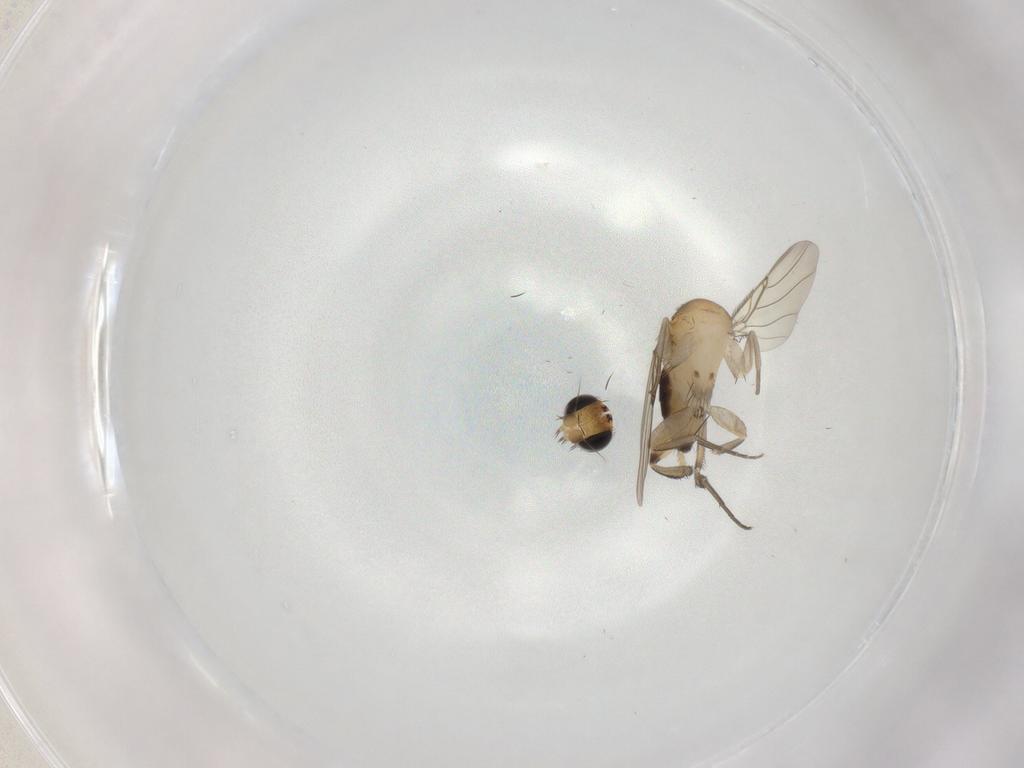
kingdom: Animalia
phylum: Arthropoda
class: Insecta
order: Diptera
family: Phoridae
